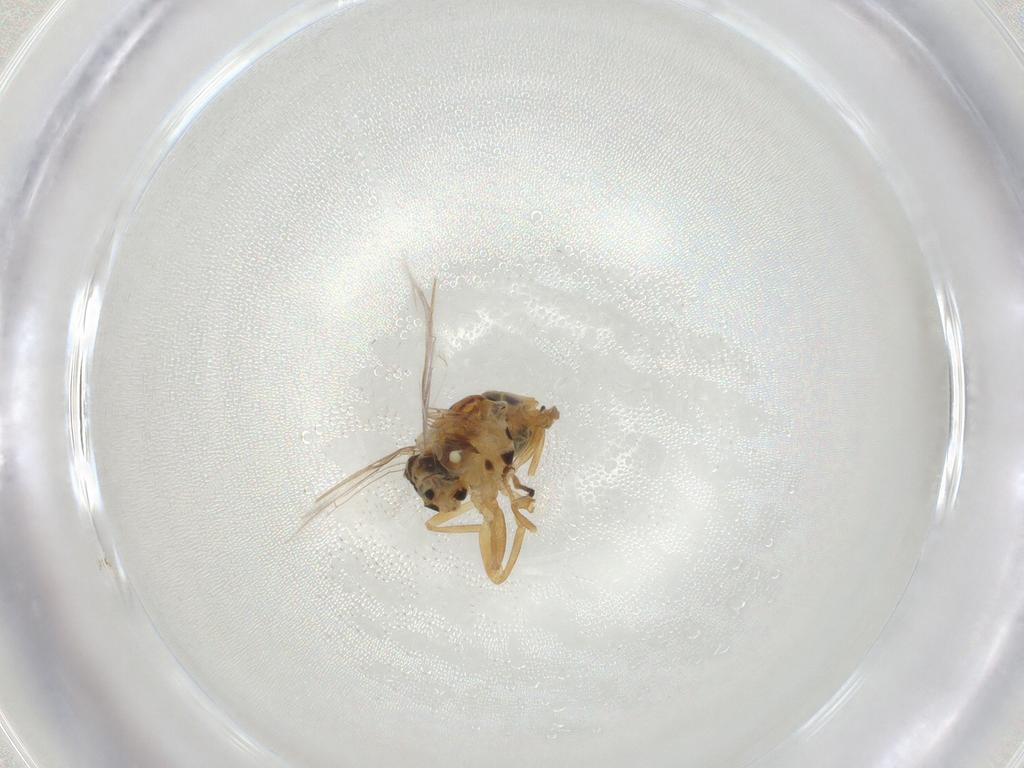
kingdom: Animalia
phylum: Arthropoda
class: Insecta
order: Diptera
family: Asteiidae
